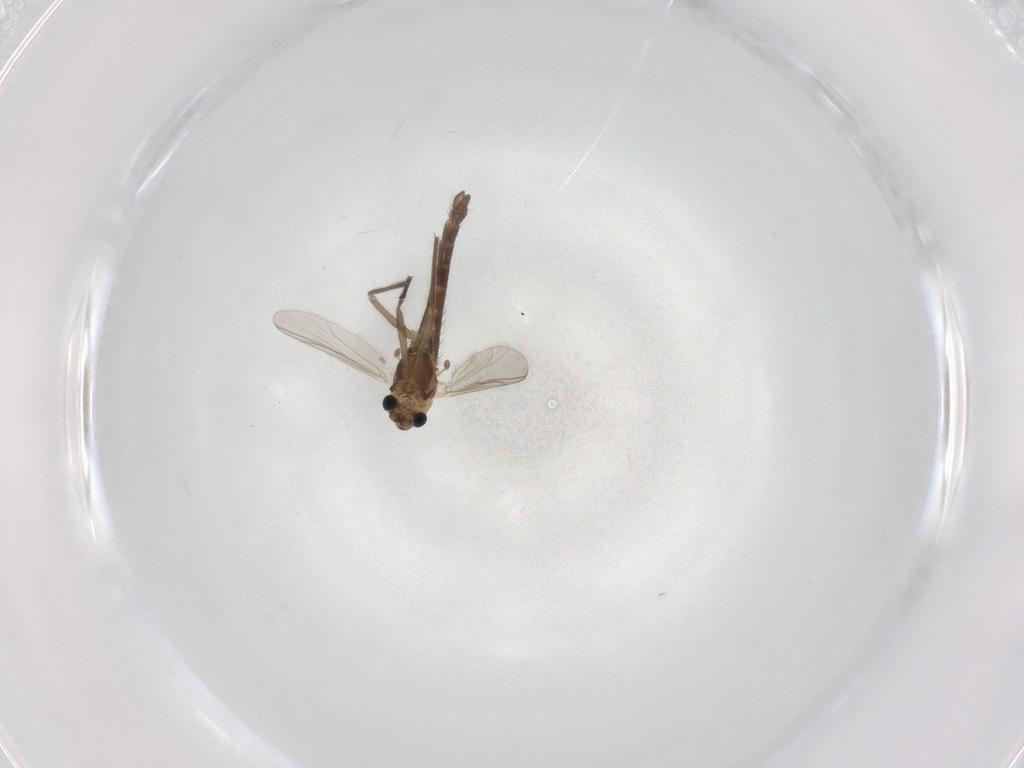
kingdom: Animalia
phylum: Arthropoda
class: Insecta
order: Diptera
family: Chironomidae
